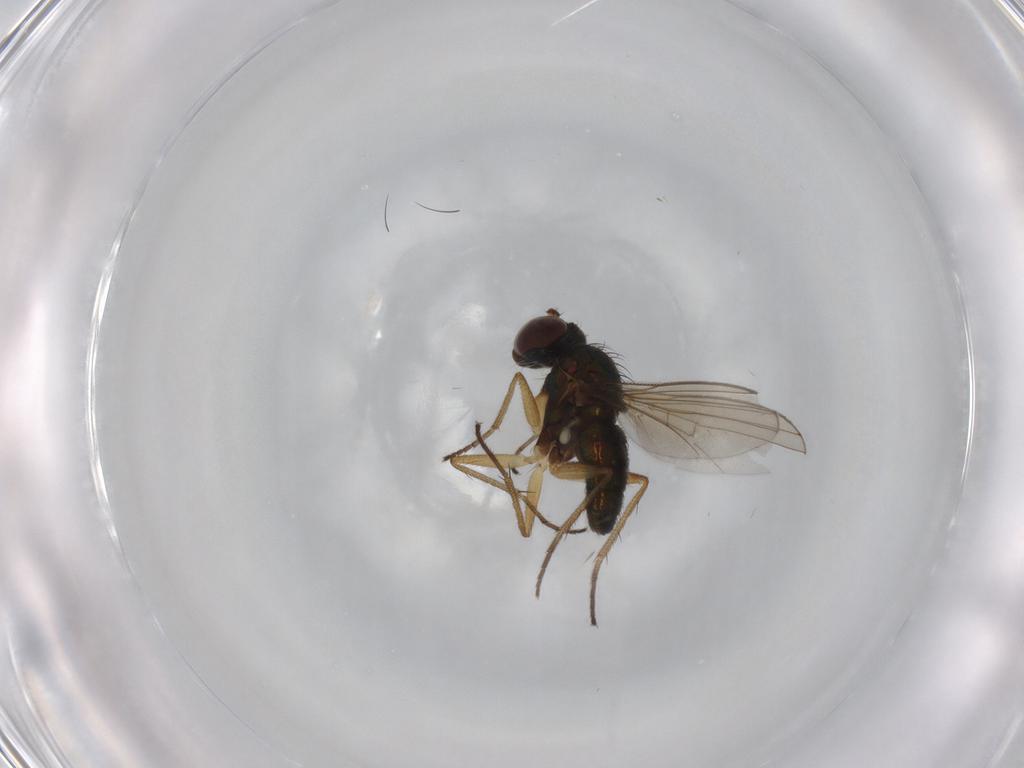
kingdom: Animalia
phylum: Arthropoda
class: Insecta
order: Diptera
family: Dolichopodidae
